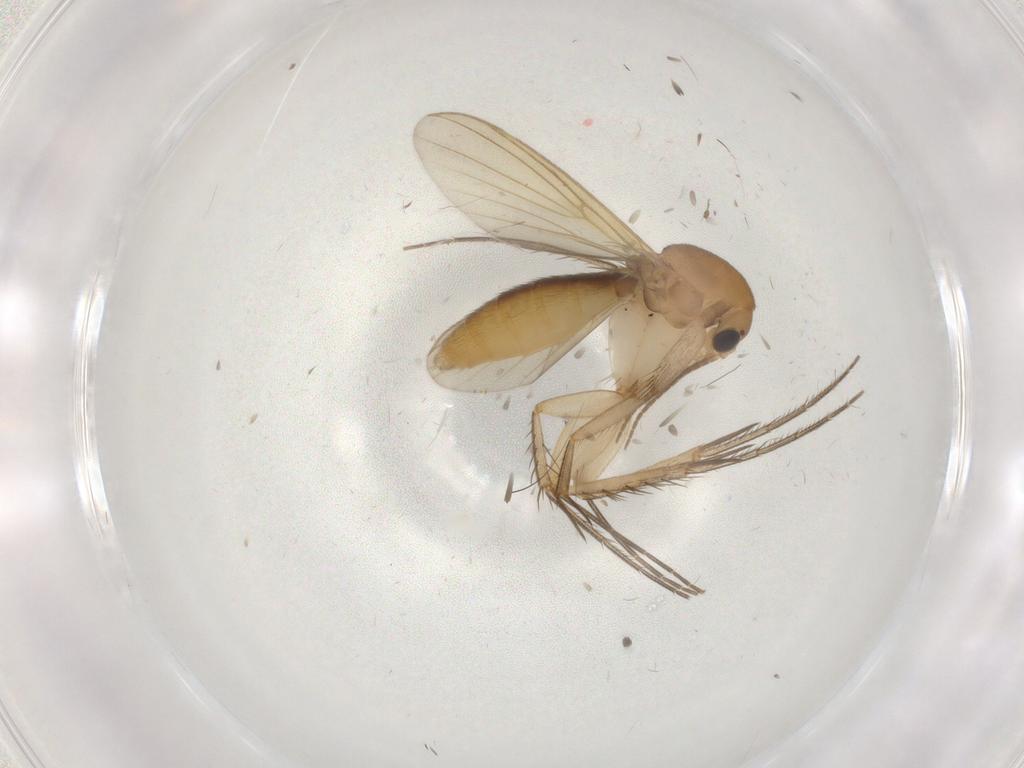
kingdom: Animalia
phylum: Arthropoda
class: Insecta
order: Diptera
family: Mycetophilidae
